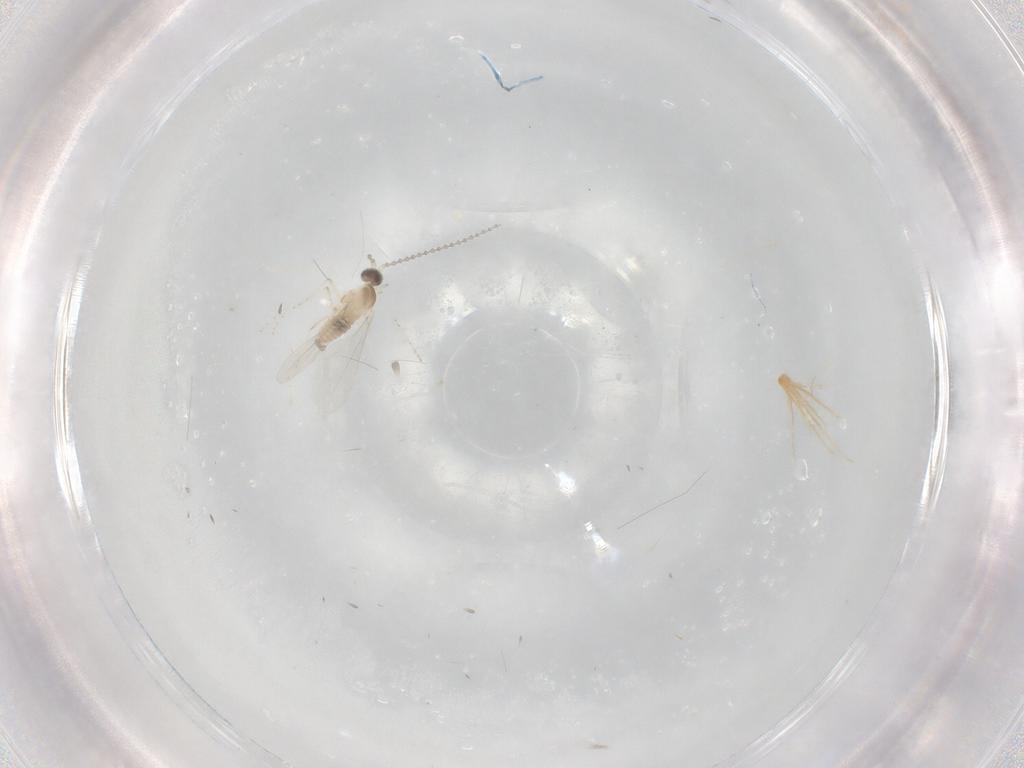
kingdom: Animalia
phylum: Arthropoda
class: Insecta
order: Diptera
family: Cecidomyiidae
